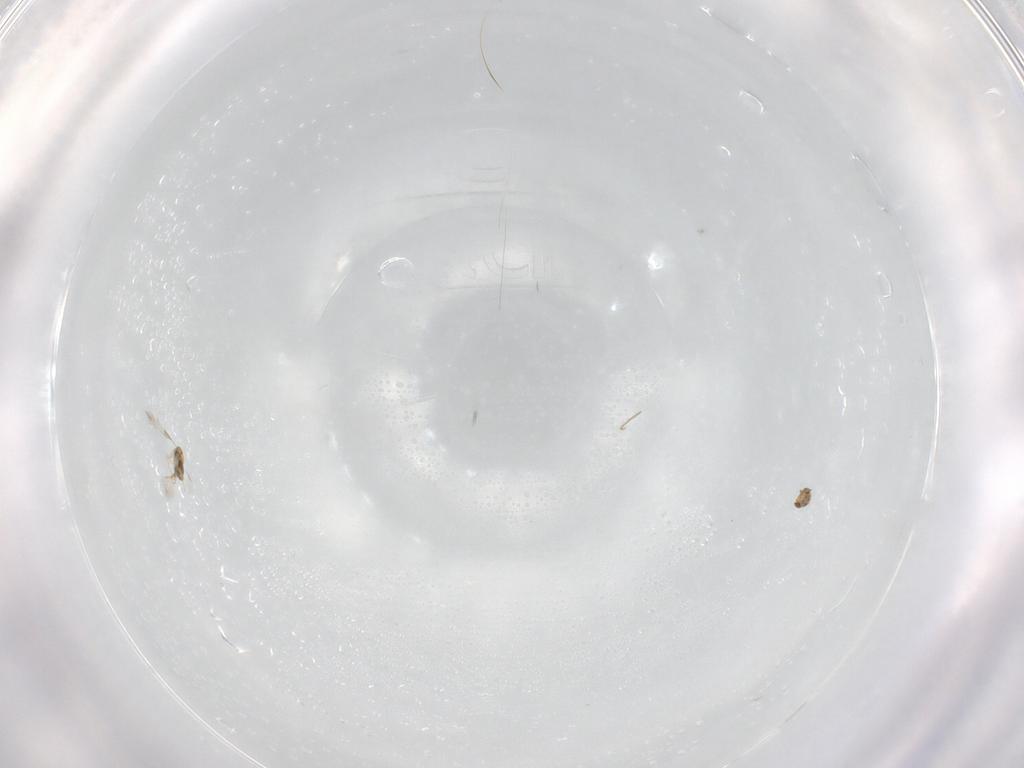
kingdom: Animalia
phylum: Arthropoda
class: Insecta
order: Hymenoptera
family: Aphelinidae
